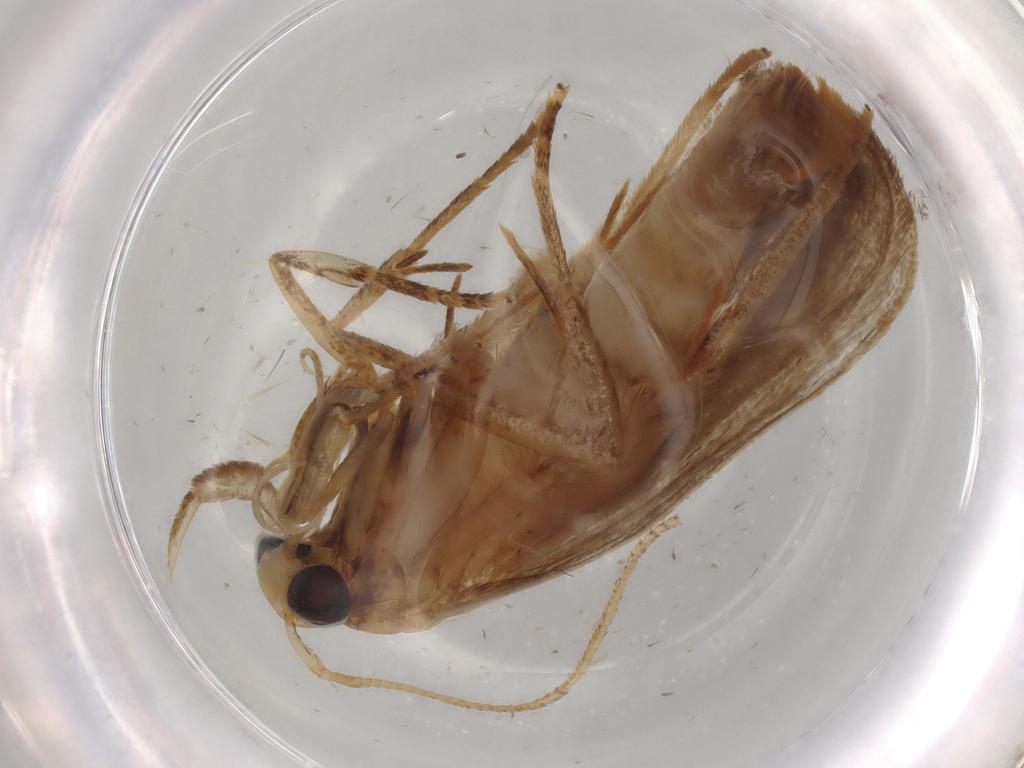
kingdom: Animalia
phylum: Arthropoda
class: Insecta
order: Lepidoptera
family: Autostichidae
